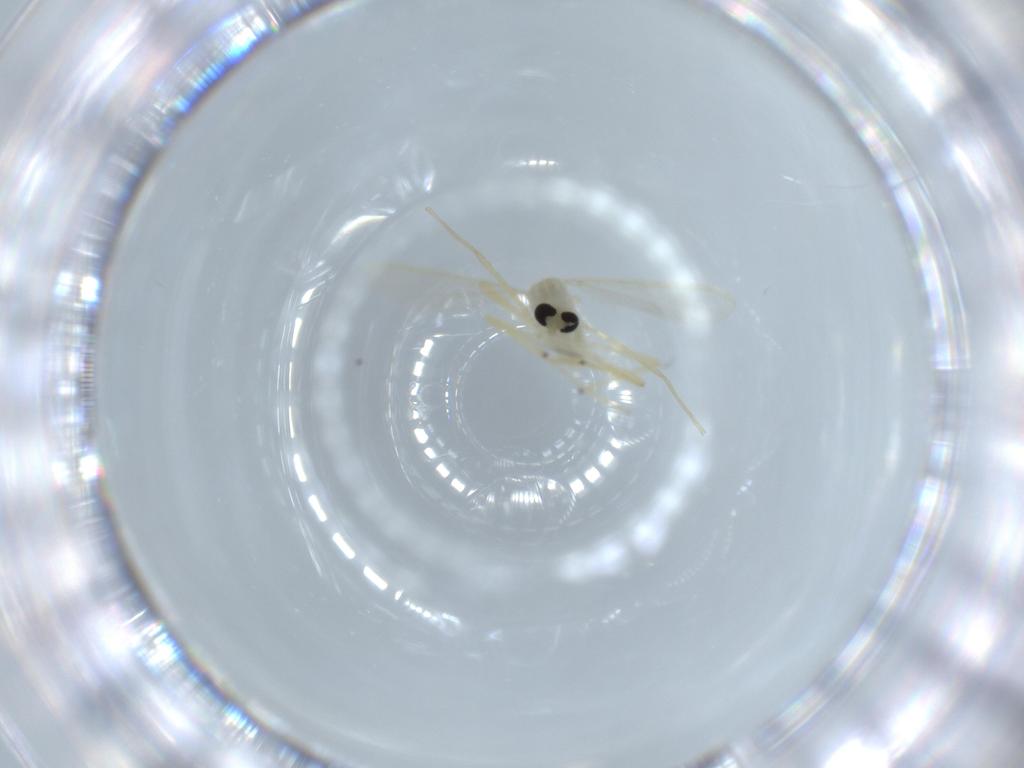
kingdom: Animalia
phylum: Arthropoda
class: Insecta
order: Diptera
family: Chironomidae
